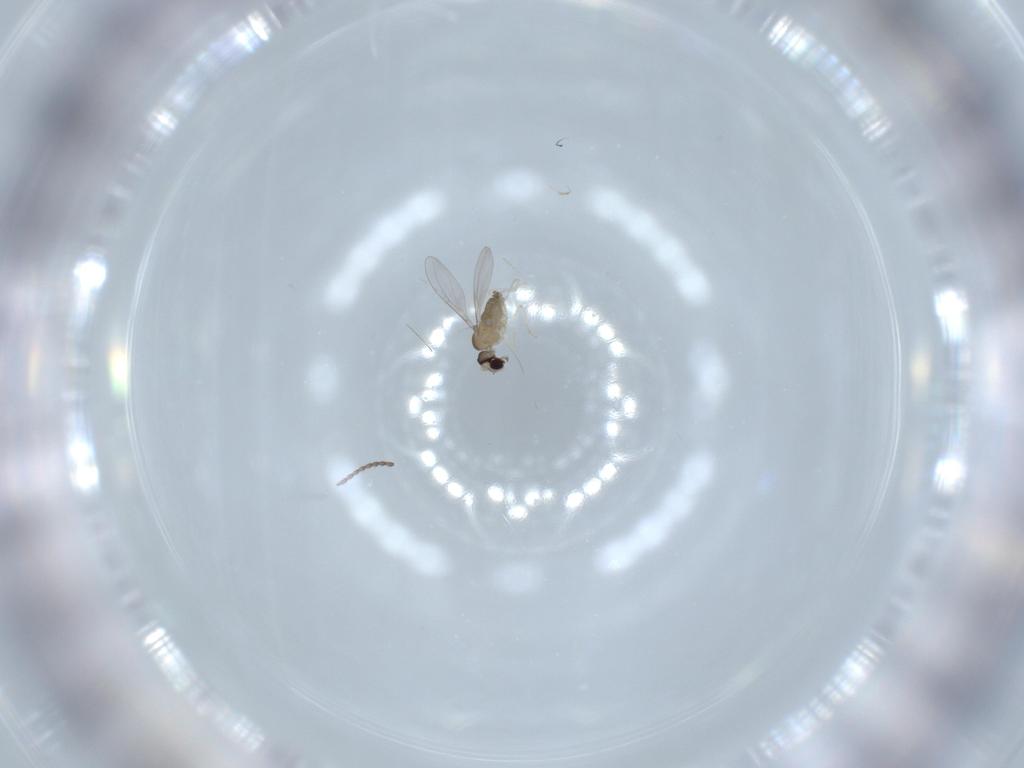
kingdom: Animalia
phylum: Arthropoda
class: Insecta
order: Diptera
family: Cecidomyiidae
